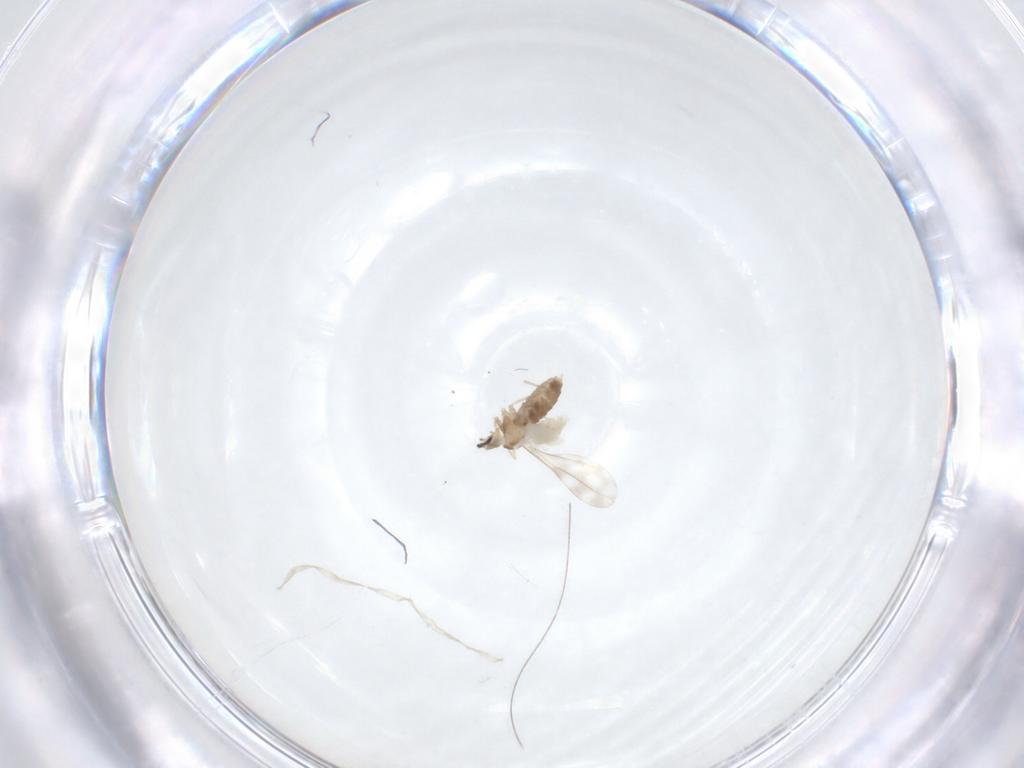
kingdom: Animalia
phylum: Arthropoda
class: Insecta
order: Diptera
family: Cecidomyiidae
